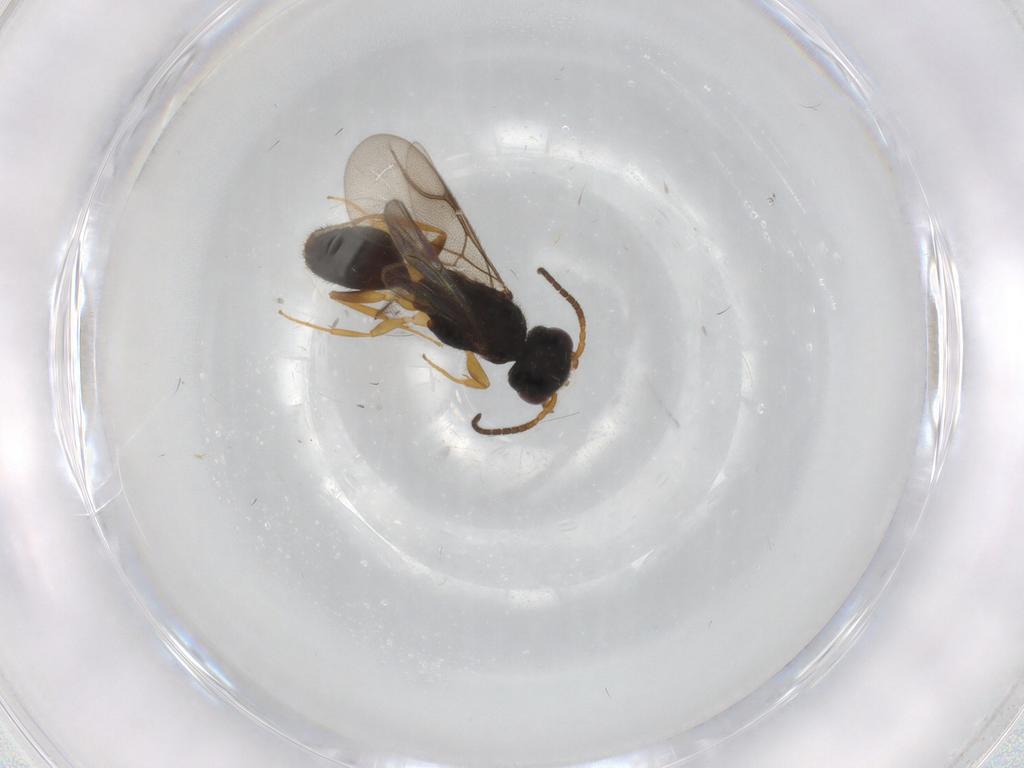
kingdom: Animalia
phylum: Arthropoda
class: Insecta
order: Hymenoptera
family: Bethylidae
